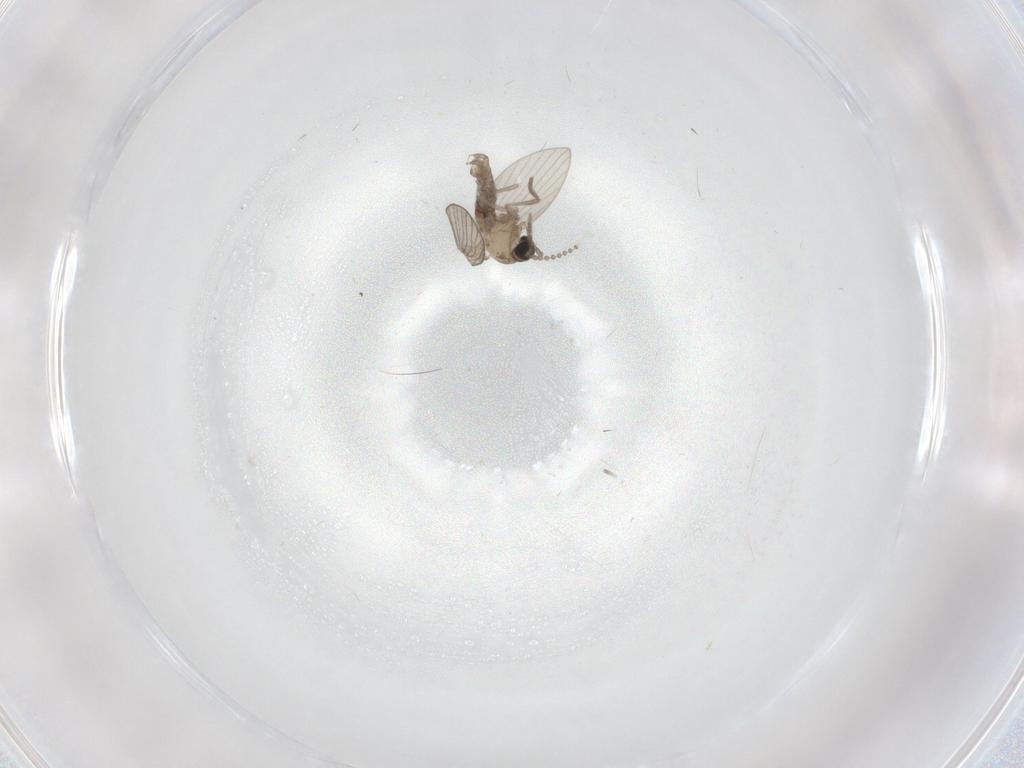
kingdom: Animalia
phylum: Arthropoda
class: Insecta
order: Diptera
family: Psychodidae
